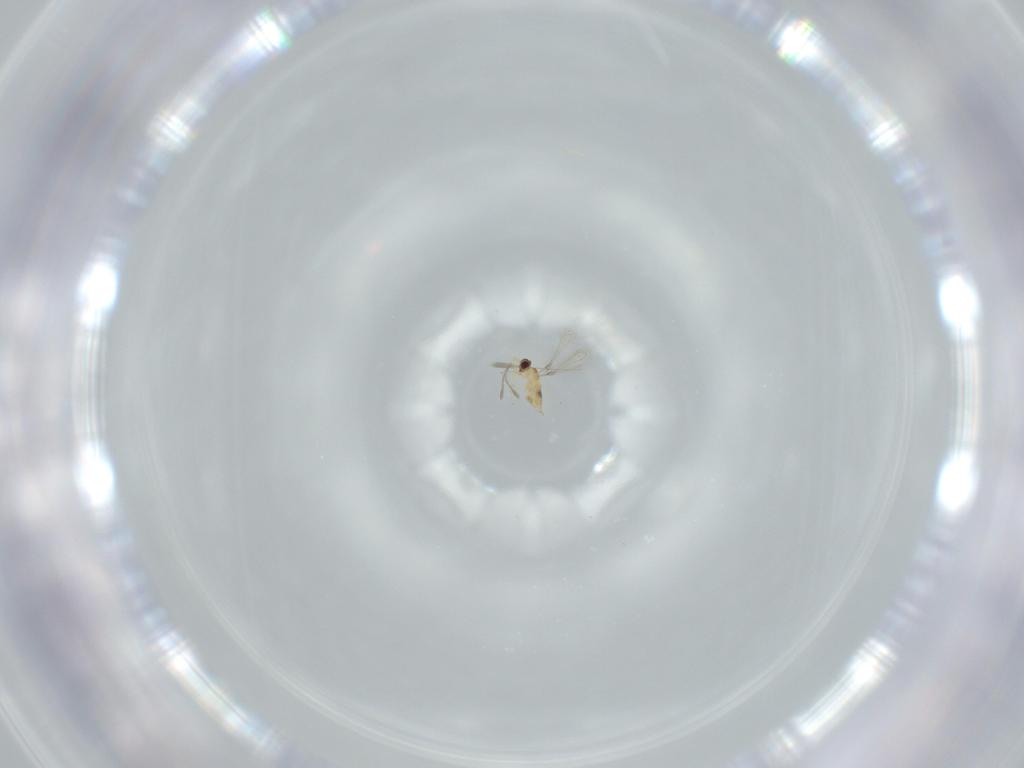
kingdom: Animalia
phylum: Arthropoda
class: Insecta
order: Hymenoptera
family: Mymaridae
